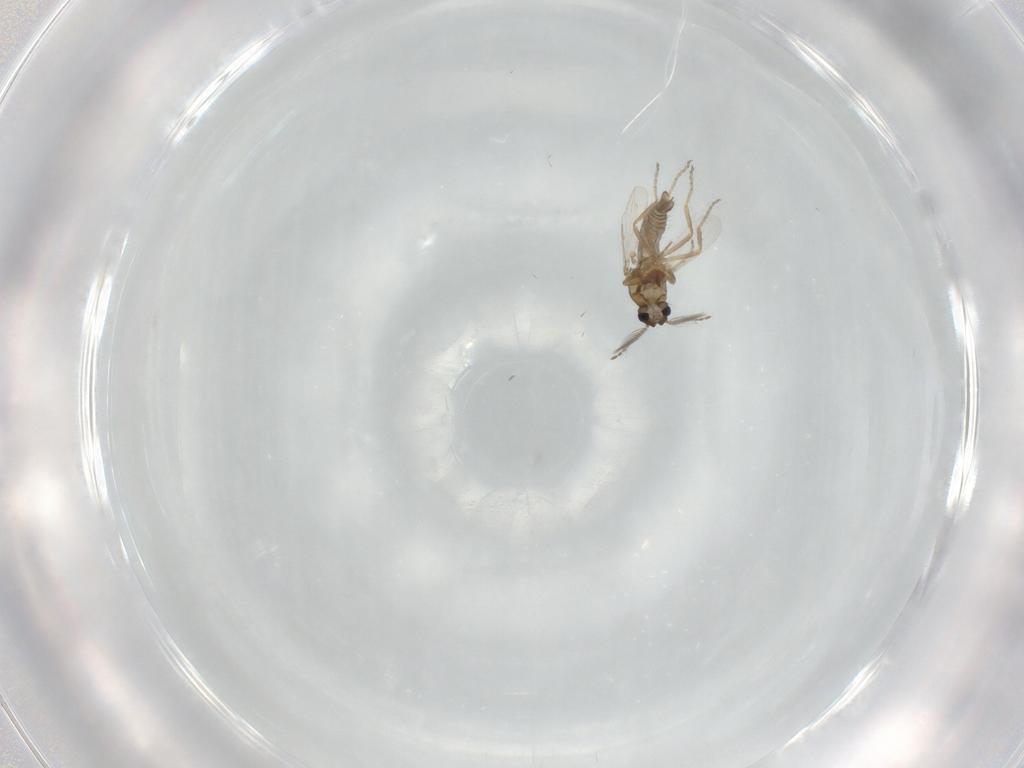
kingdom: Animalia
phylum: Arthropoda
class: Insecta
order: Diptera
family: Ceratopogonidae
